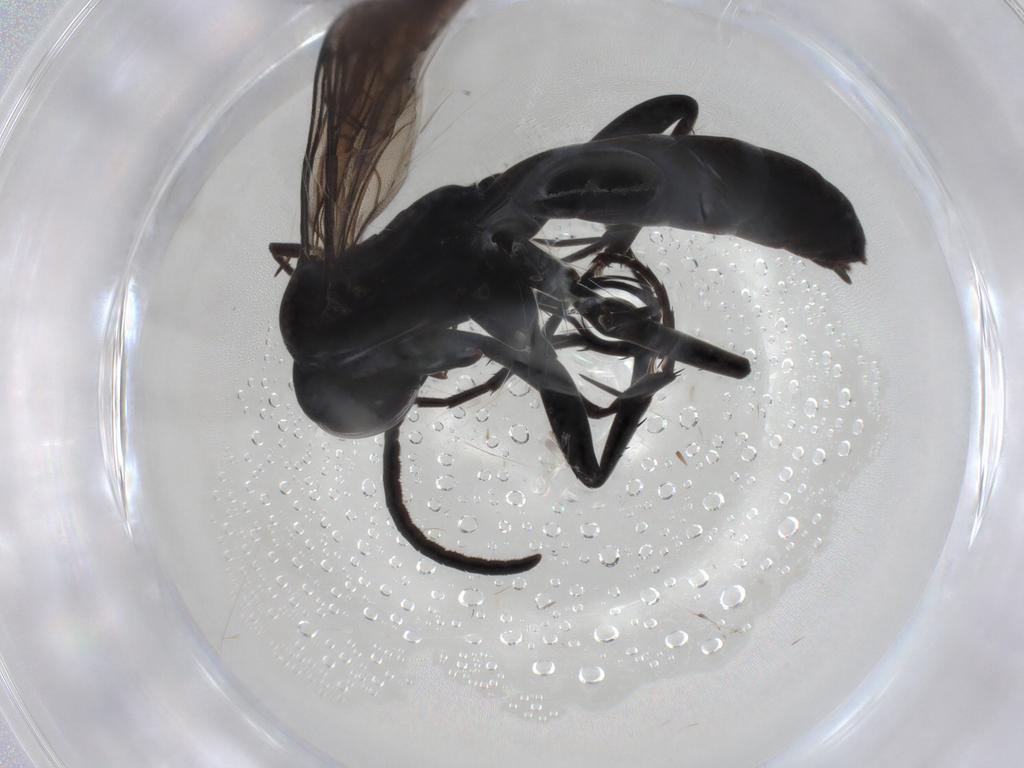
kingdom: Animalia
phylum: Arthropoda
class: Insecta
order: Hymenoptera
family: Pompilidae
